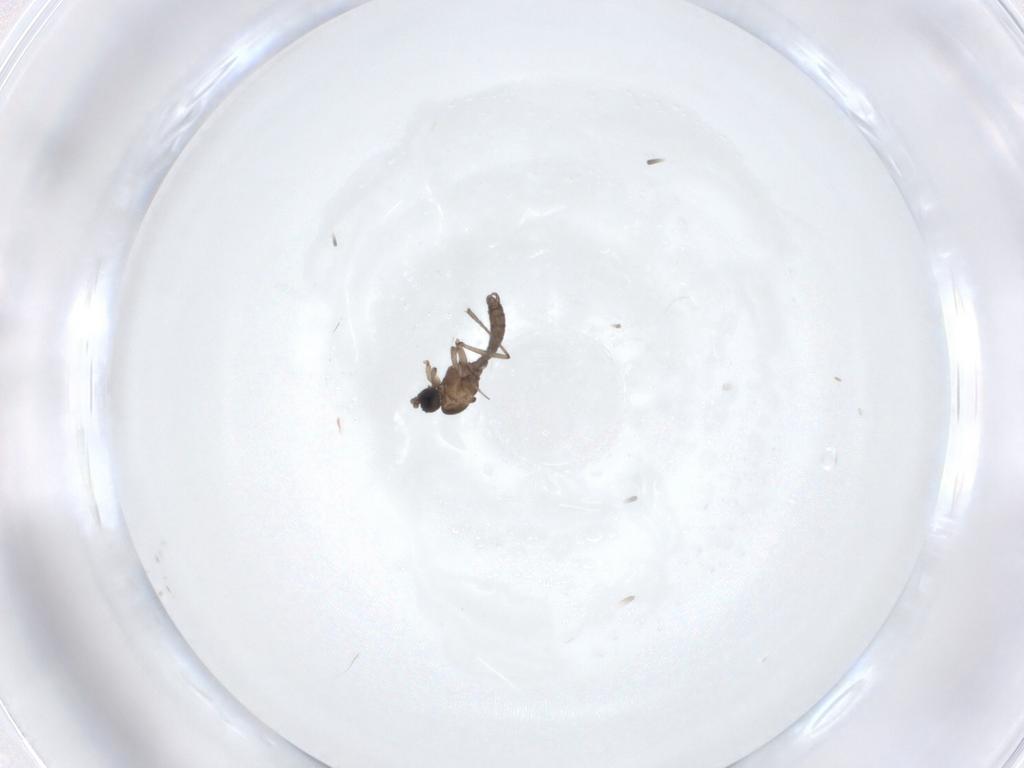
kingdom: Animalia
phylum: Arthropoda
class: Insecta
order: Diptera
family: Sciaridae
